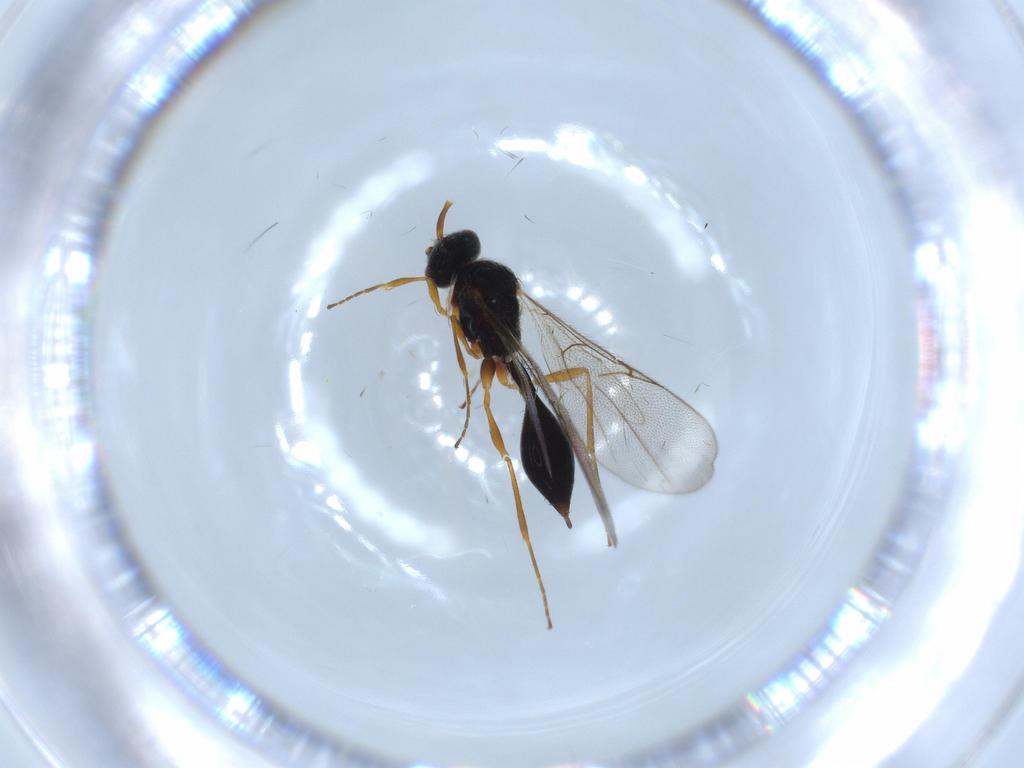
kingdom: Animalia
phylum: Arthropoda
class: Insecta
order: Hymenoptera
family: Diapriidae
